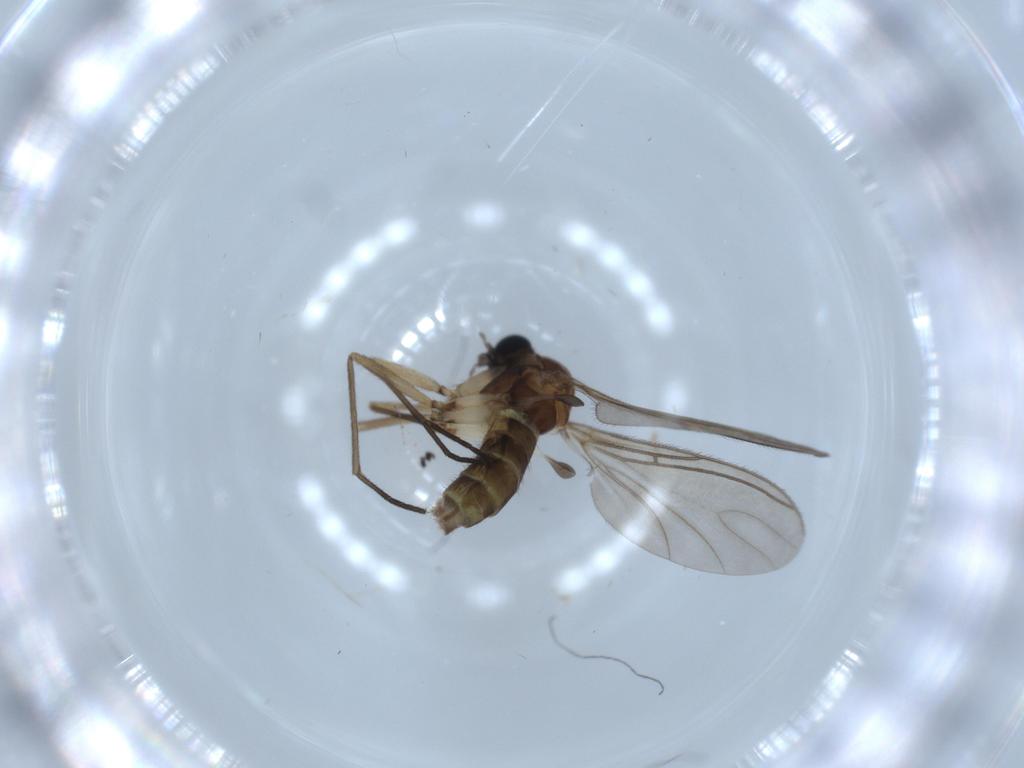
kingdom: Animalia
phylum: Arthropoda
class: Insecta
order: Diptera
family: Sciaridae
